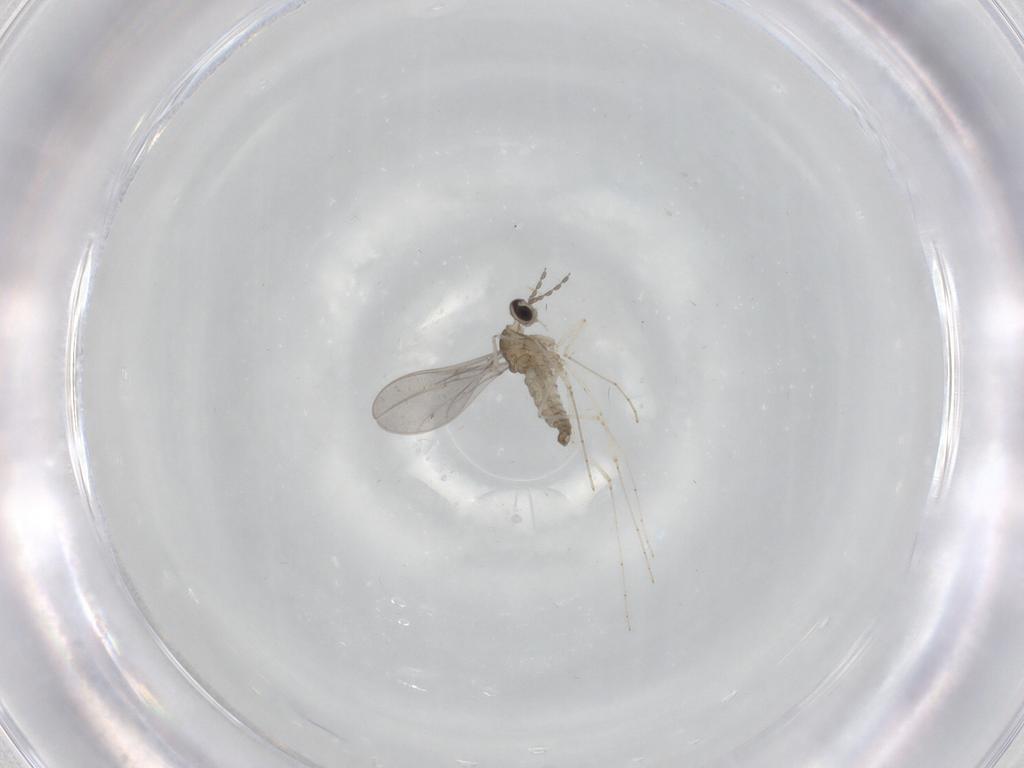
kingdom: Animalia
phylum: Arthropoda
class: Insecta
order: Diptera
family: Cecidomyiidae
